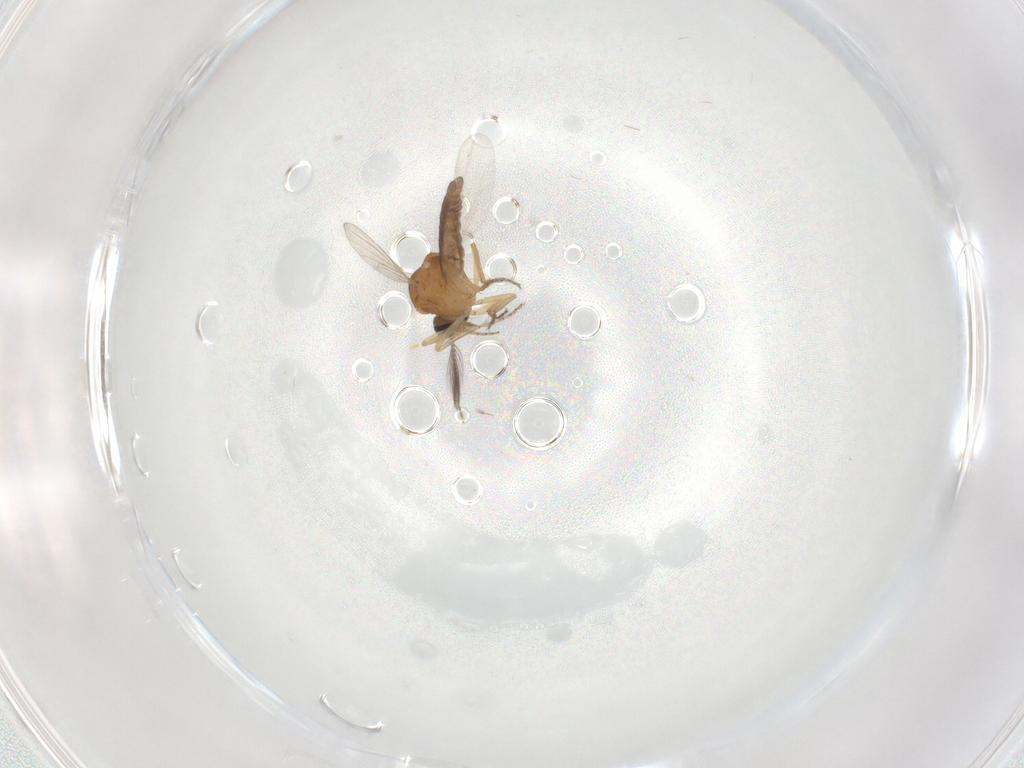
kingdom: Animalia
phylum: Arthropoda
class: Insecta
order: Diptera
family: Ceratopogonidae
